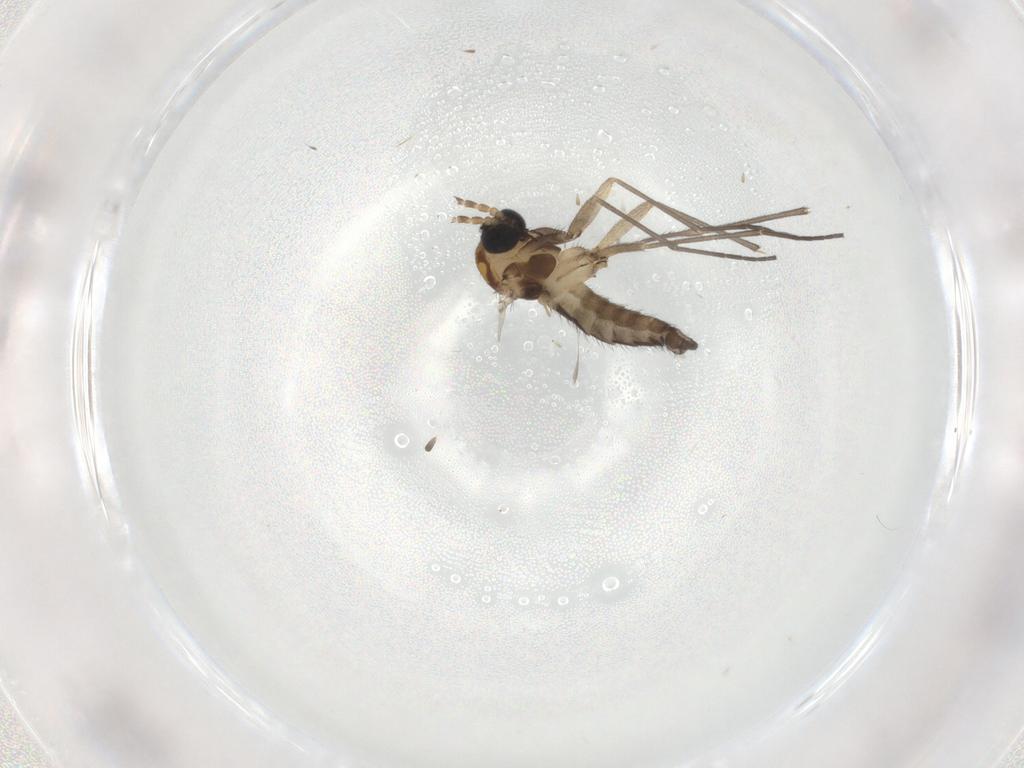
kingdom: Animalia
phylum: Arthropoda
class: Insecta
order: Diptera
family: Sciaridae
